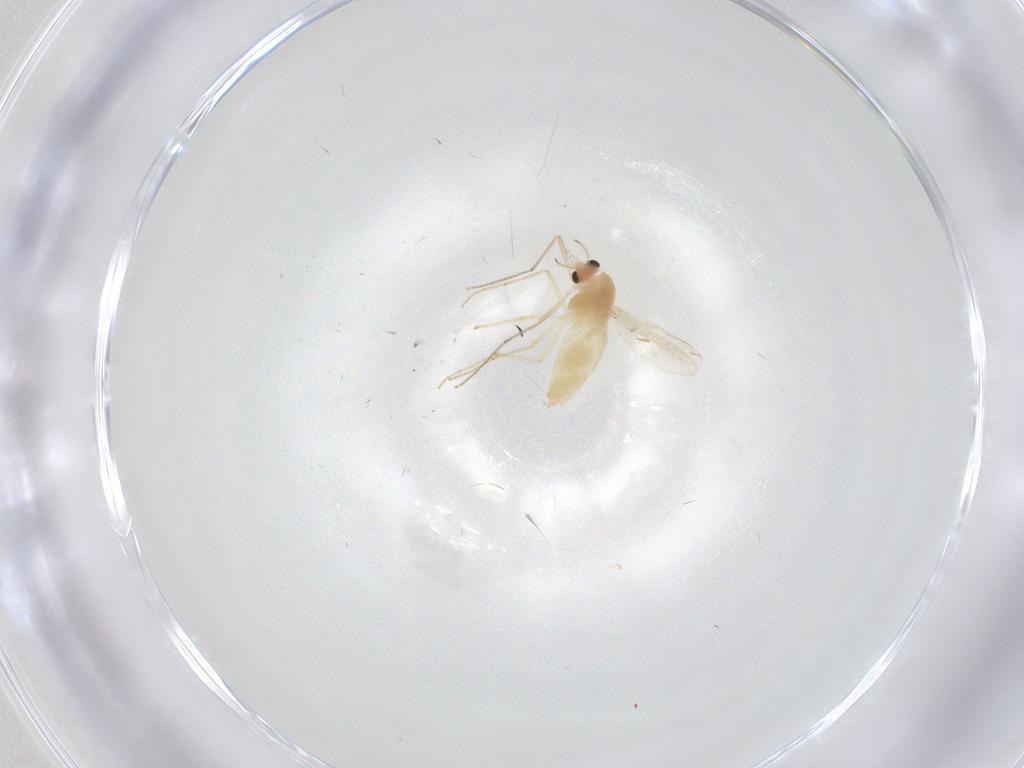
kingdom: Animalia
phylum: Arthropoda
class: Insecta
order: Diptera
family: Chironomidae
